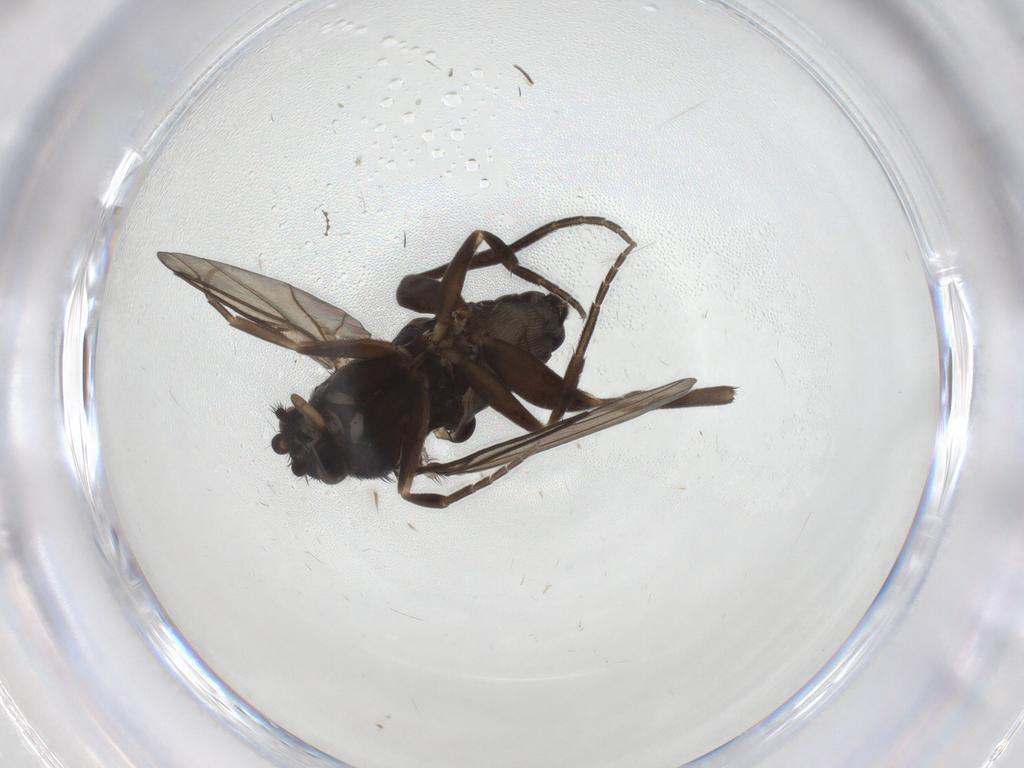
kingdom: Animalia
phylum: Arthropoda
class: Insecta
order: Diptera
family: Phoridae
